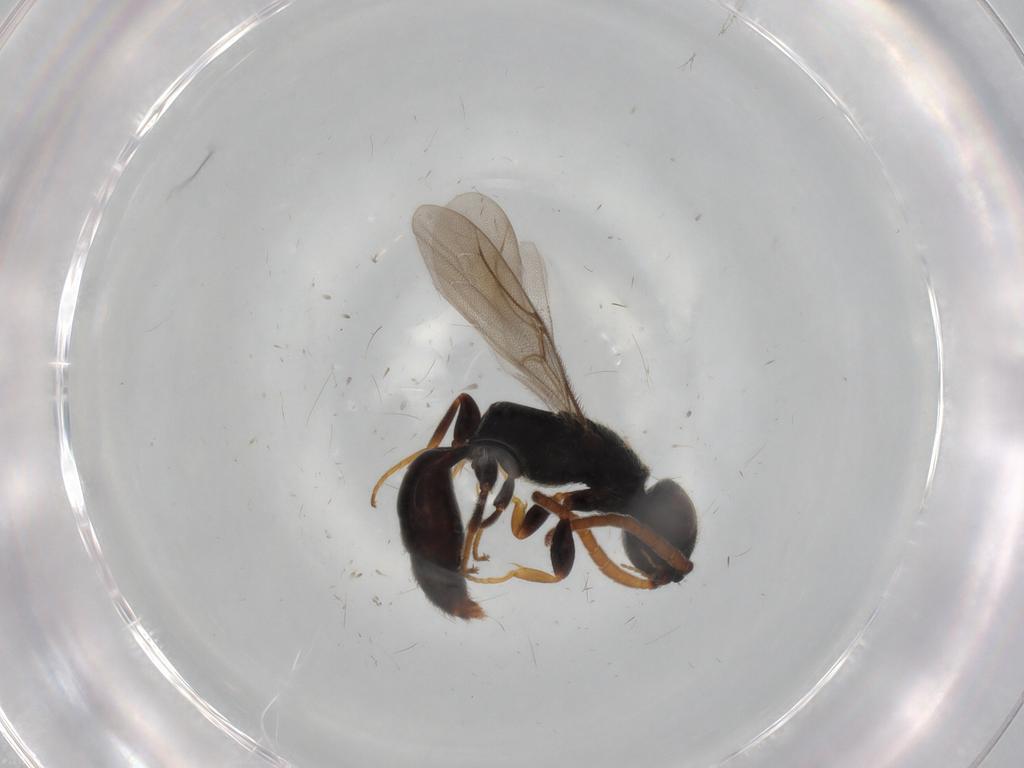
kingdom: Animalia
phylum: Arthropoda
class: Insecta
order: Hymenoptera
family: Bethylidae
